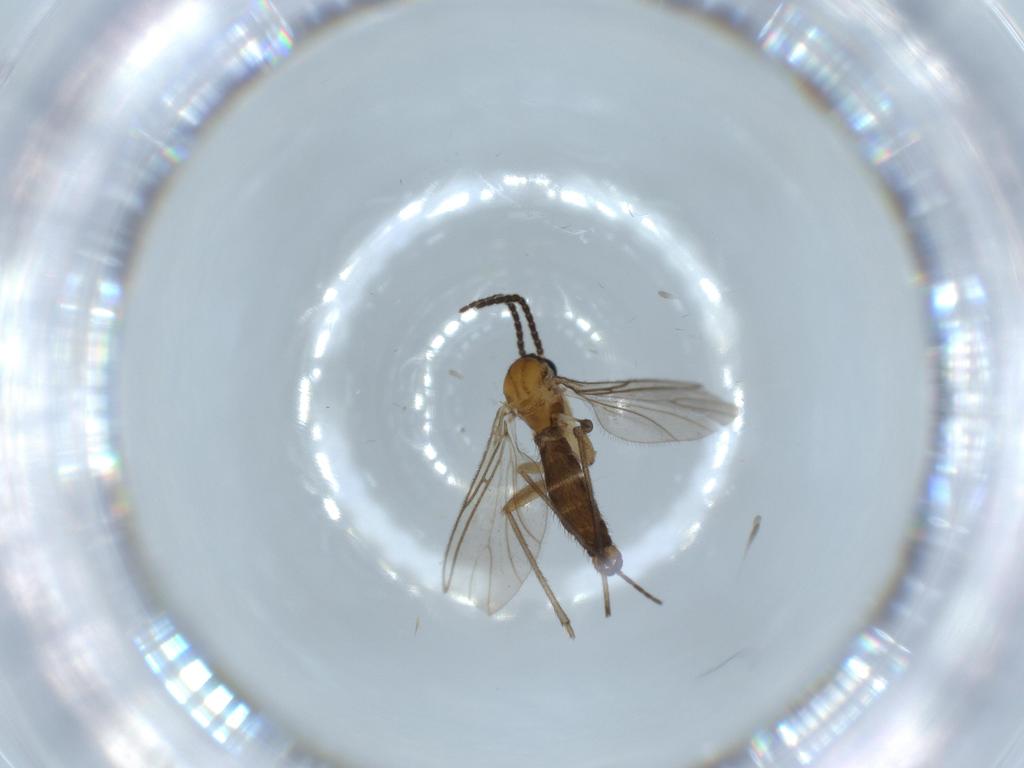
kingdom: Animalia
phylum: Arthropoda
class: Insecta
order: Diptera
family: Sciaridae
